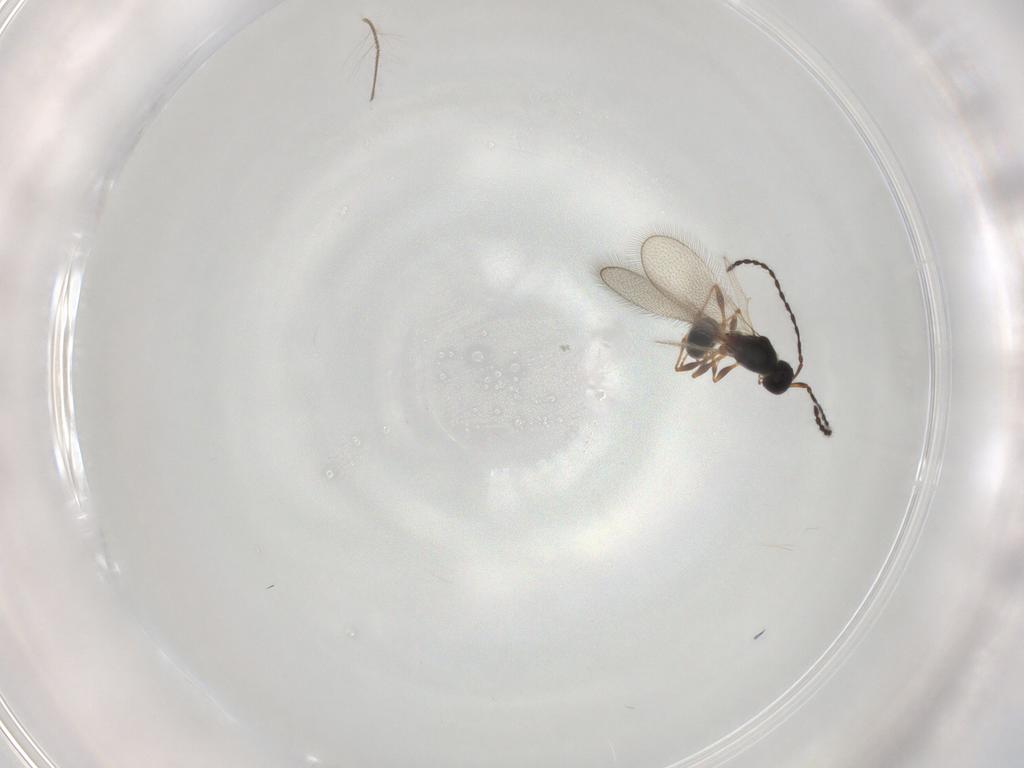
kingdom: Animalia
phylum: Arthropoda
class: Insecta
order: Hymenoptera
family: Diapriidae
